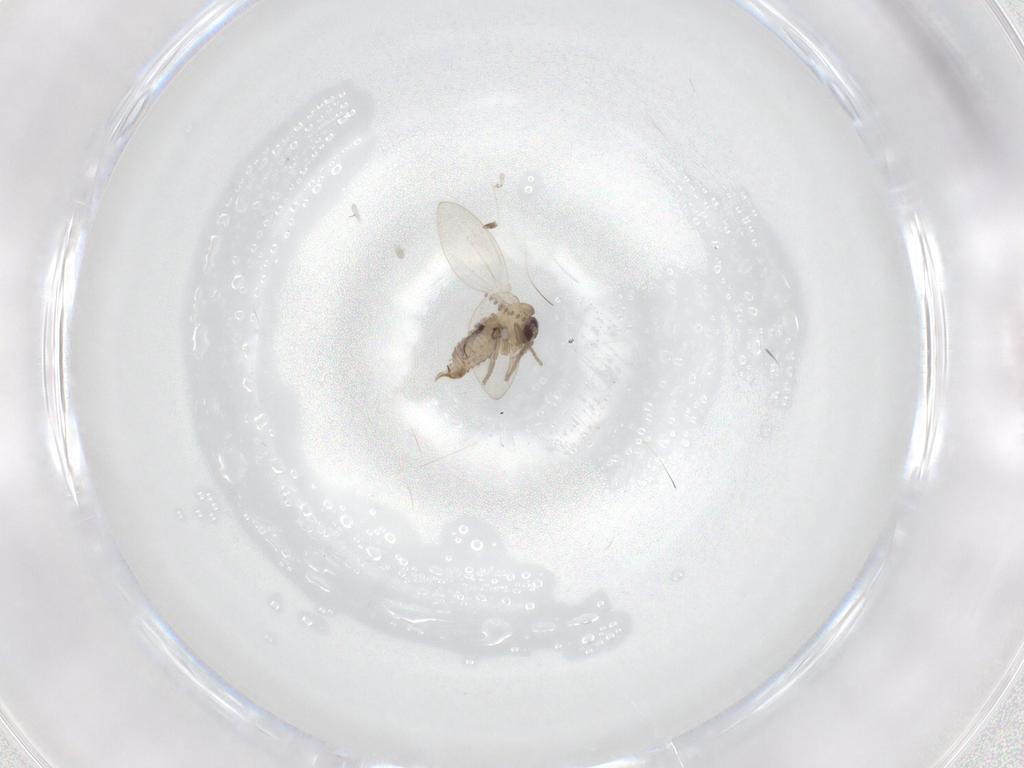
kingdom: Animalia
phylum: Arthropoda
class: Insecta
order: Diptera
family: Psychodidae
